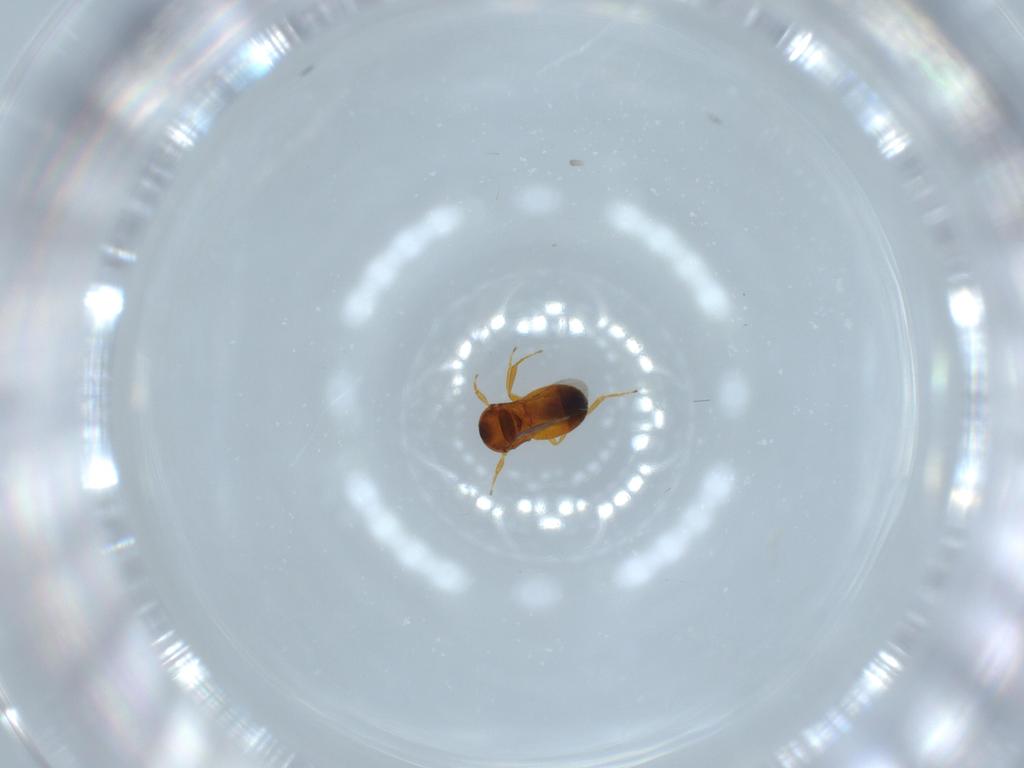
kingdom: Animalia
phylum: Arthropoda
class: Insecta
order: Hymenoptera
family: Scelionidae
